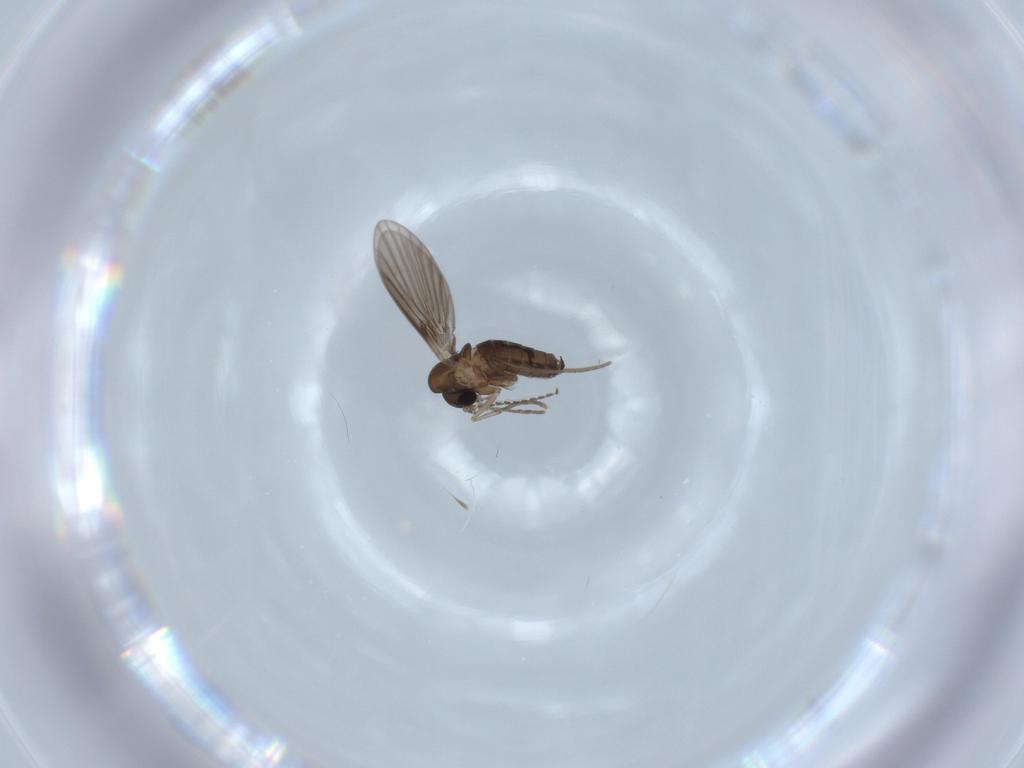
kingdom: Animalia
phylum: Arthropoda
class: Insecta
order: Diptera
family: Psychodidae
